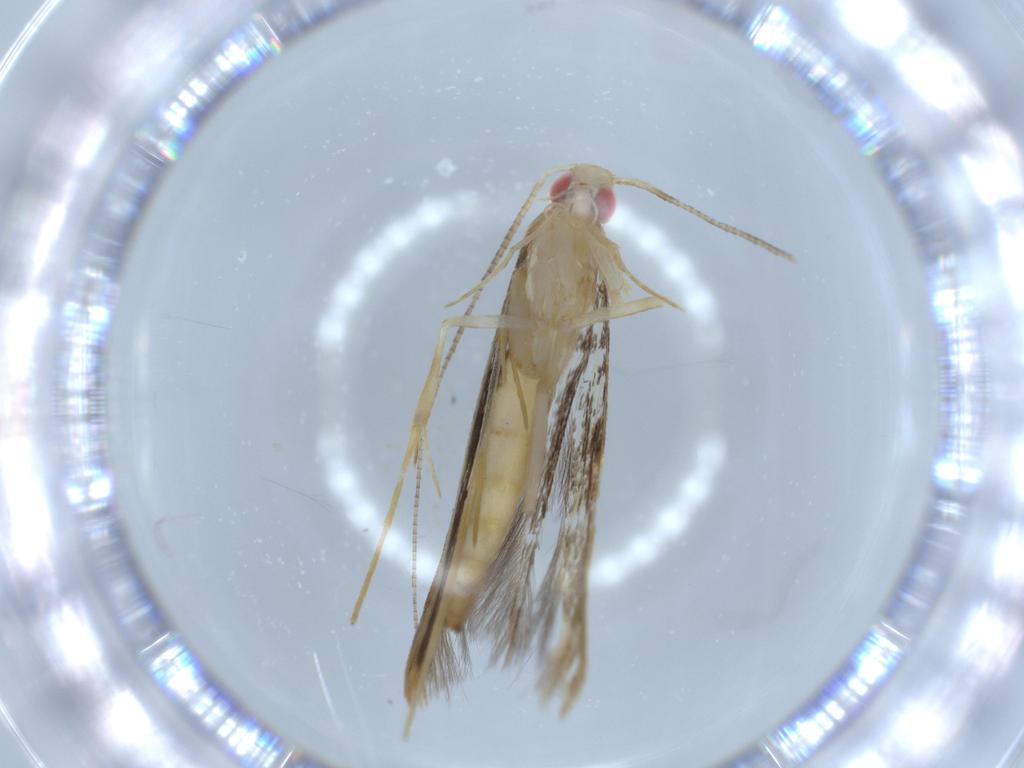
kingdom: Animalia
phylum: Arthropoda
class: Insecta
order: Lepidoptera
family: Gracillariidae
